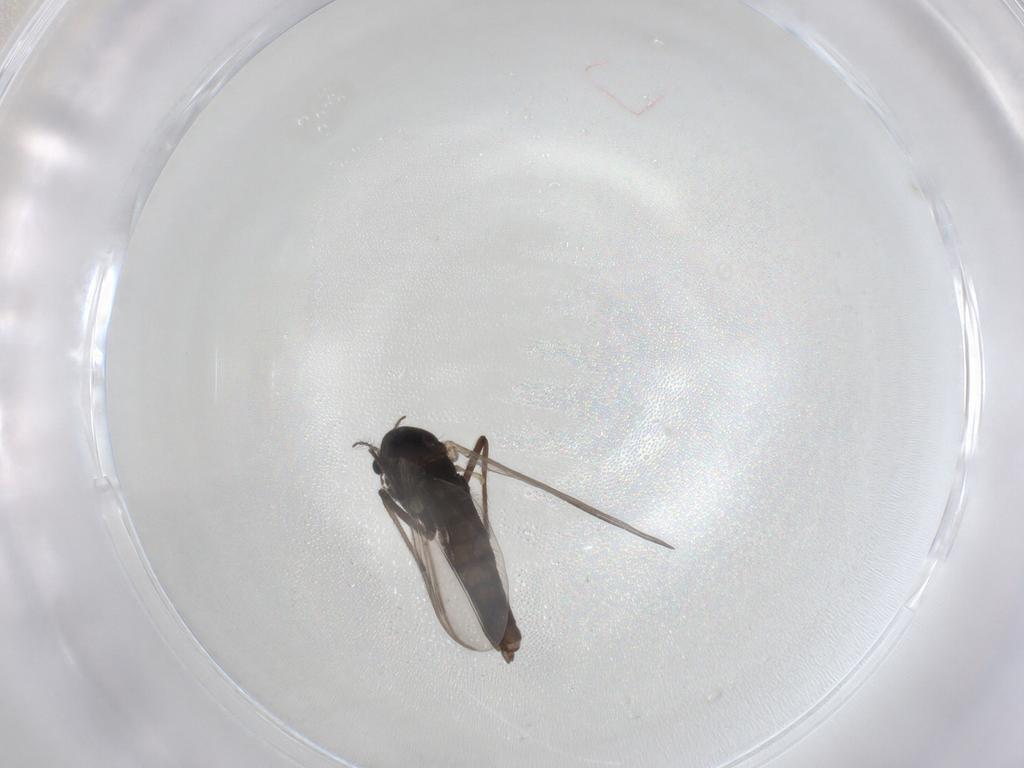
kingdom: Animalia
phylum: Arthropoda
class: Insecta
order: Diptera
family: Chironomidae
